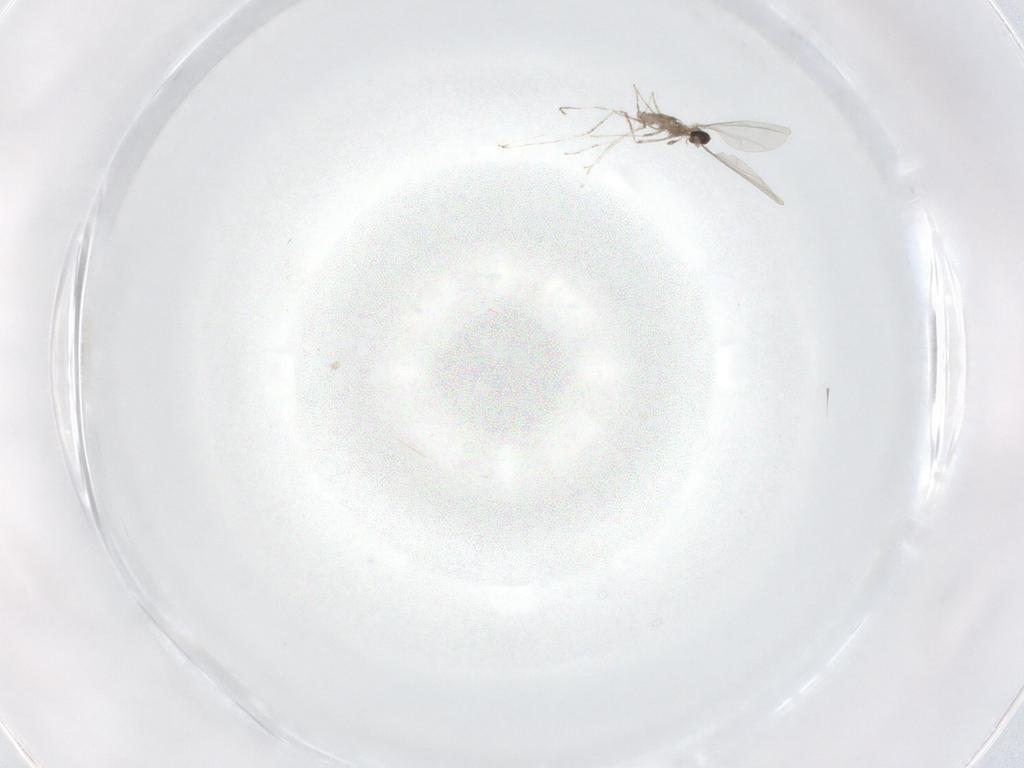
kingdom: Animalia
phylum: Arthropoda
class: Insecta
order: Diptera
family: Cecidomyiidae
